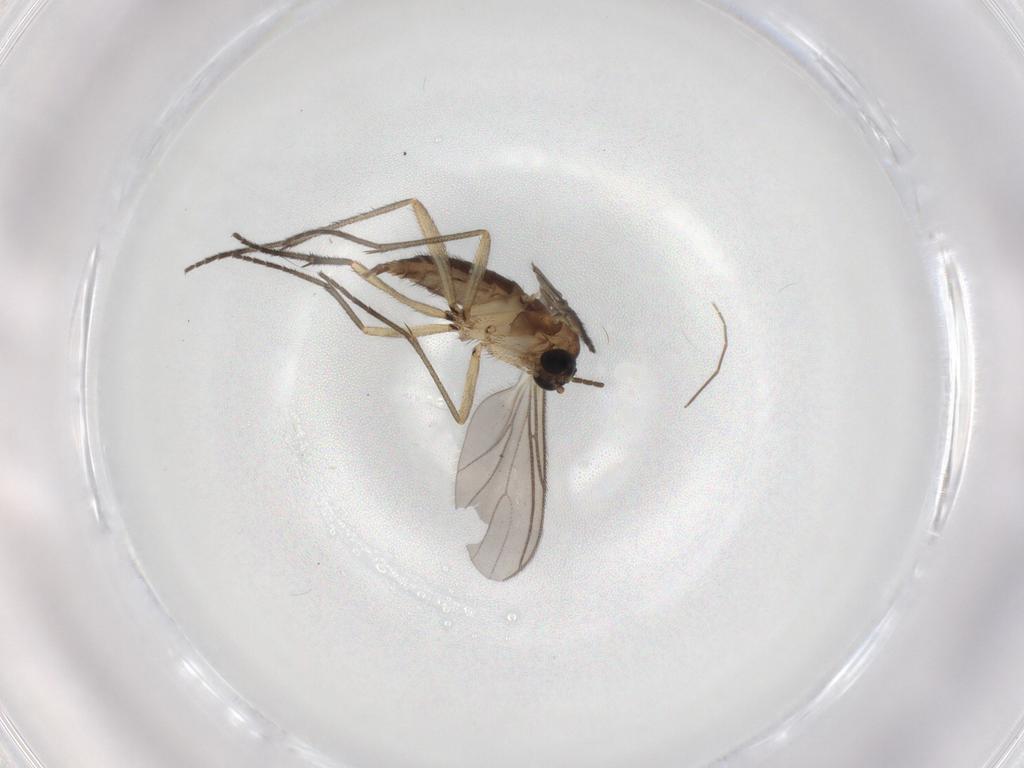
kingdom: Animalia
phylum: Arthropoda
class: Insecta
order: Diptera
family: Sciaridae
